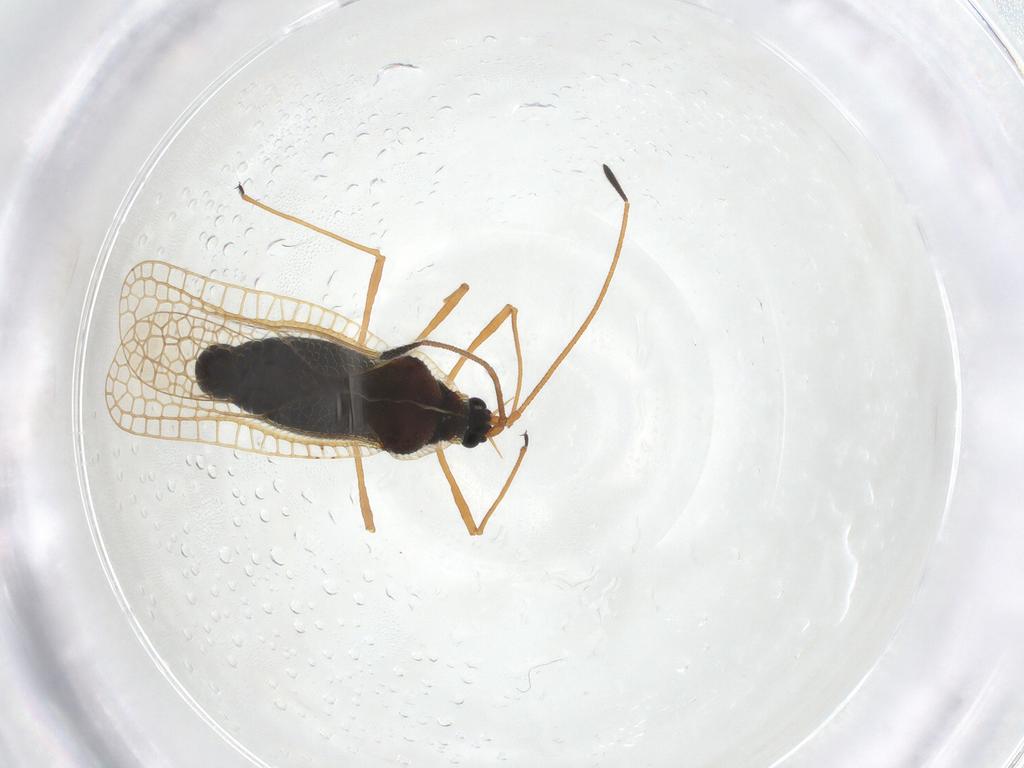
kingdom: Animalia
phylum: Arthropoda
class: Insecta
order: Hemiptera
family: Tingidae
